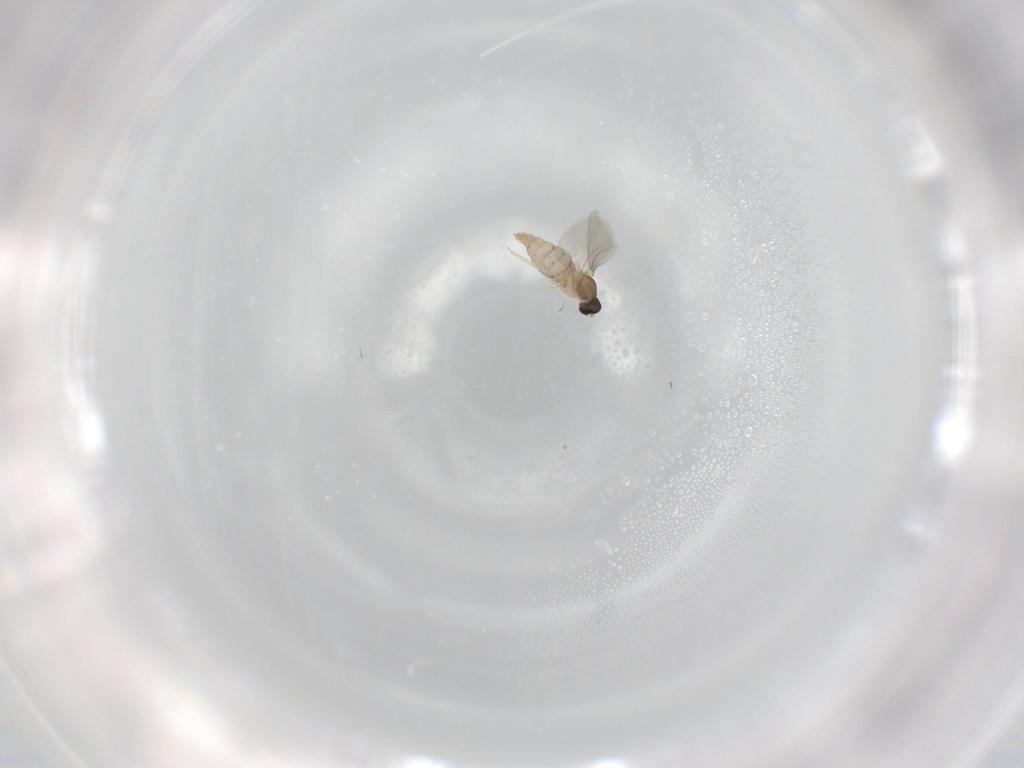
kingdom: Animalia
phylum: Arthropoda
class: Insecta
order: Diptera
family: Cecidomyiidae
